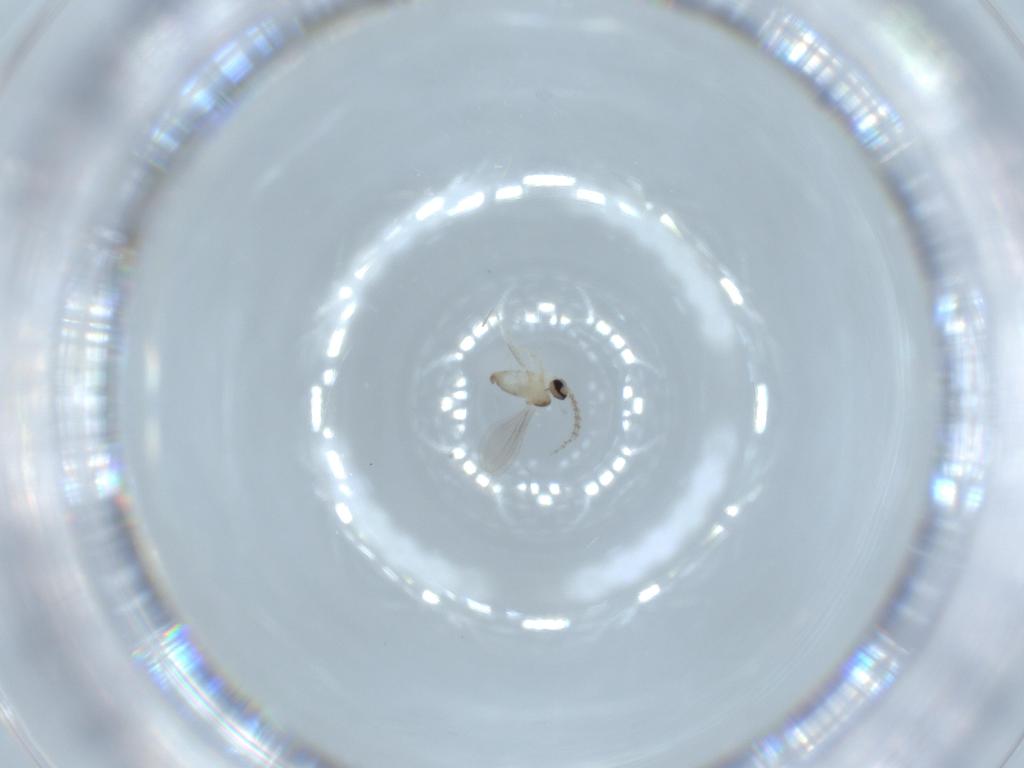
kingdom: Animalia
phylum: Arthropoda
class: Insecta
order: Diptera
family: Cecidomyiidae
